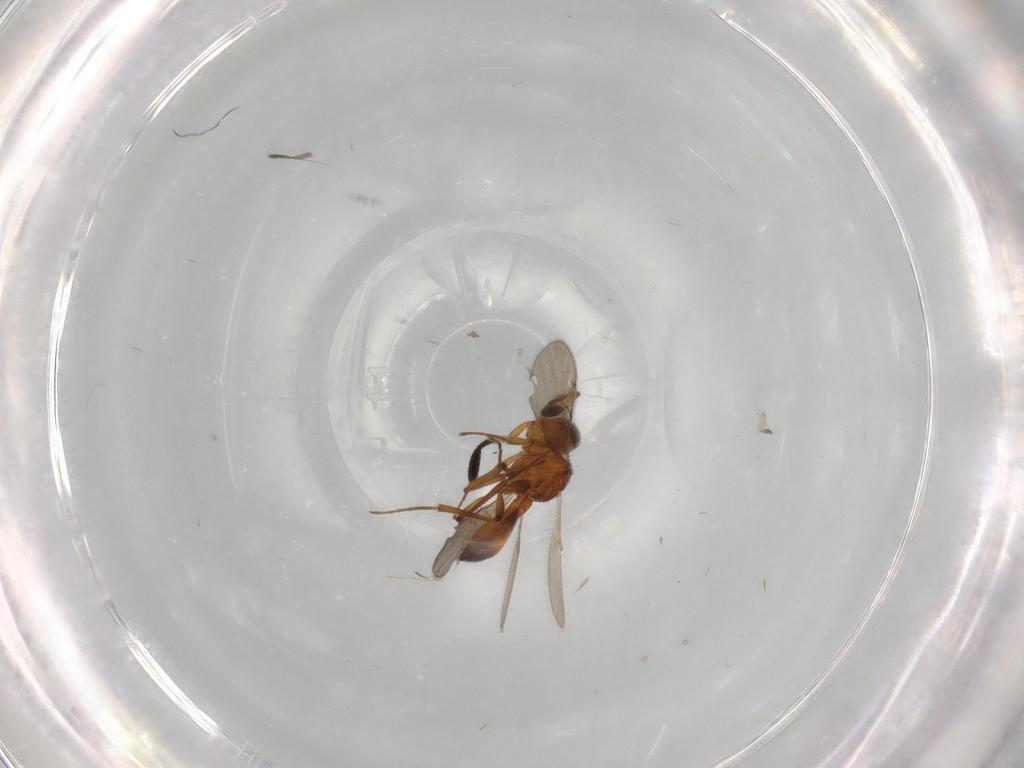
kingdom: Animalia
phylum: Arthropoda
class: Insecta
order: Hymenoptera
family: Scelionidae
